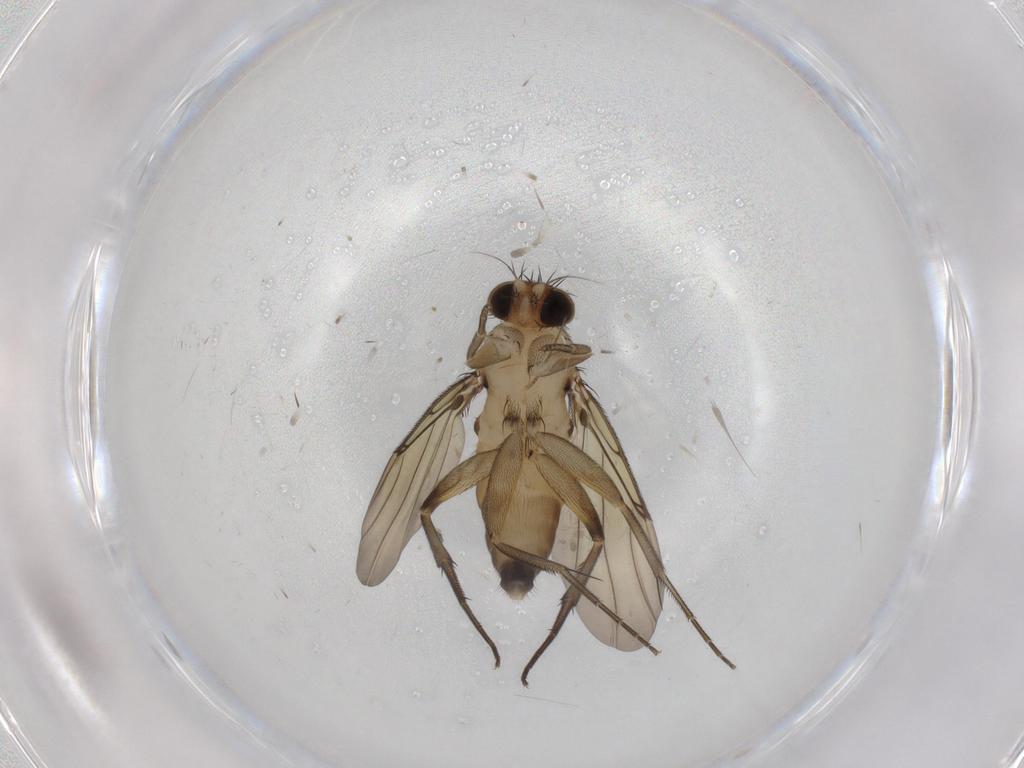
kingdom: Animalia
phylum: Arthropoda
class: Insecta
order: Diptera
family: Phoridae
